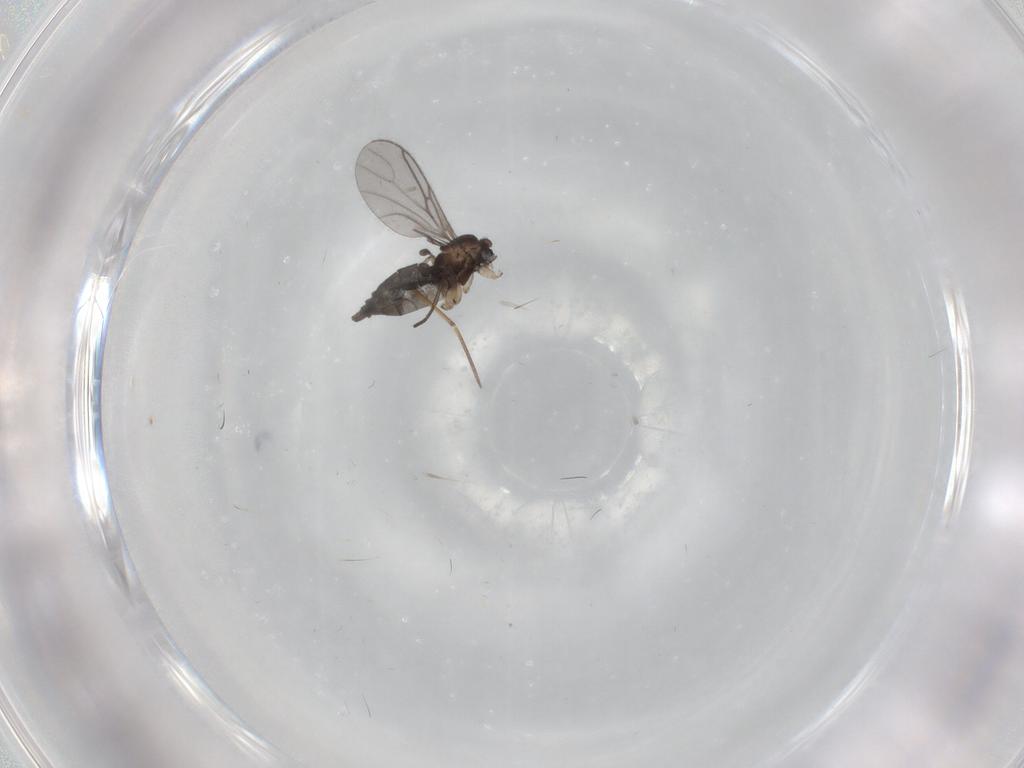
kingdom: Animalia
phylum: Arthropoda
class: Insecta
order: Diptera
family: Sciaridae
